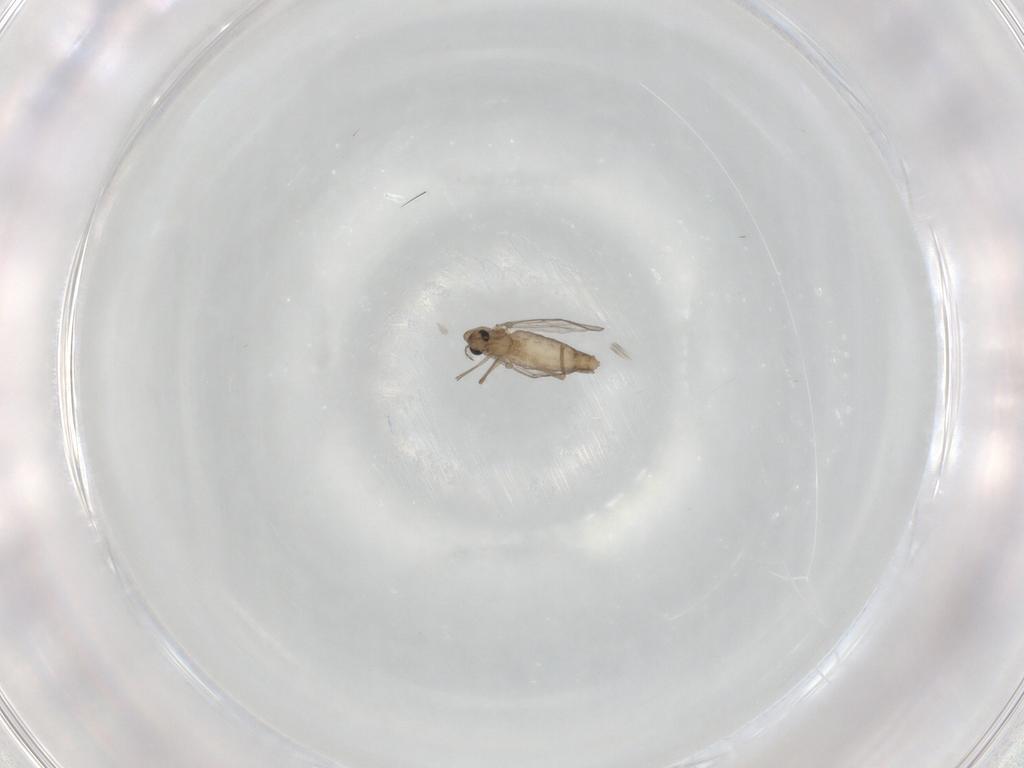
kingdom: Animalia
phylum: Arthropoda
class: Insecta
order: Diptera
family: Chironomidae
